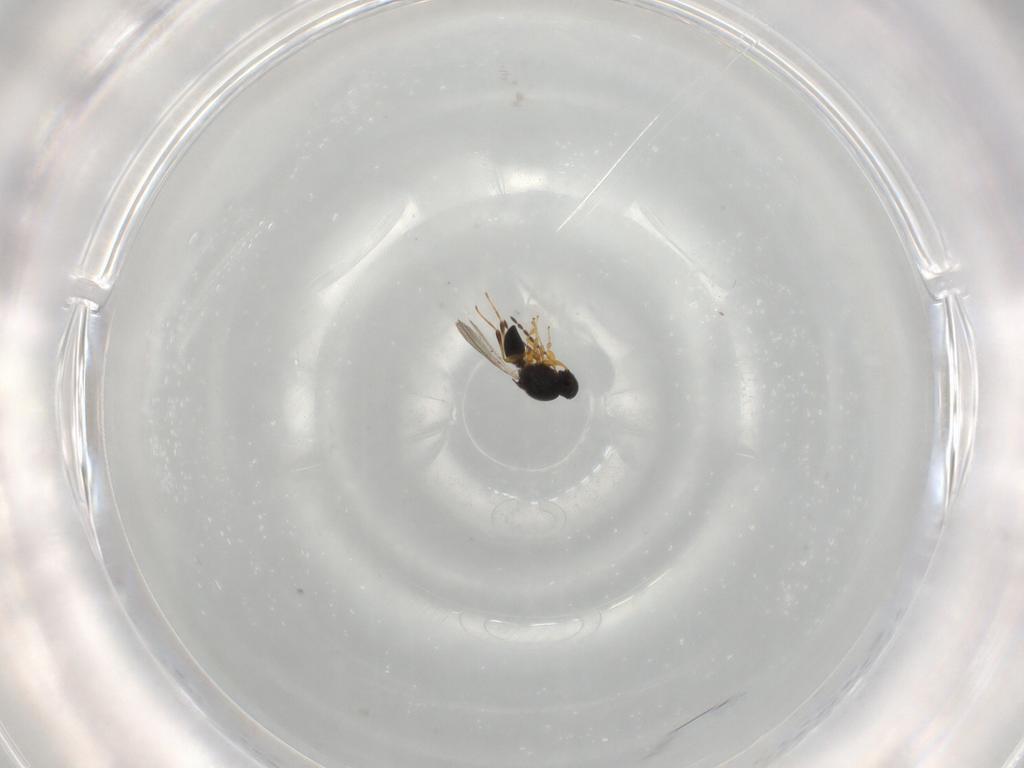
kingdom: Animalia
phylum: Arthropoda
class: Insecta
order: Hymenoptera
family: Platygastridae
